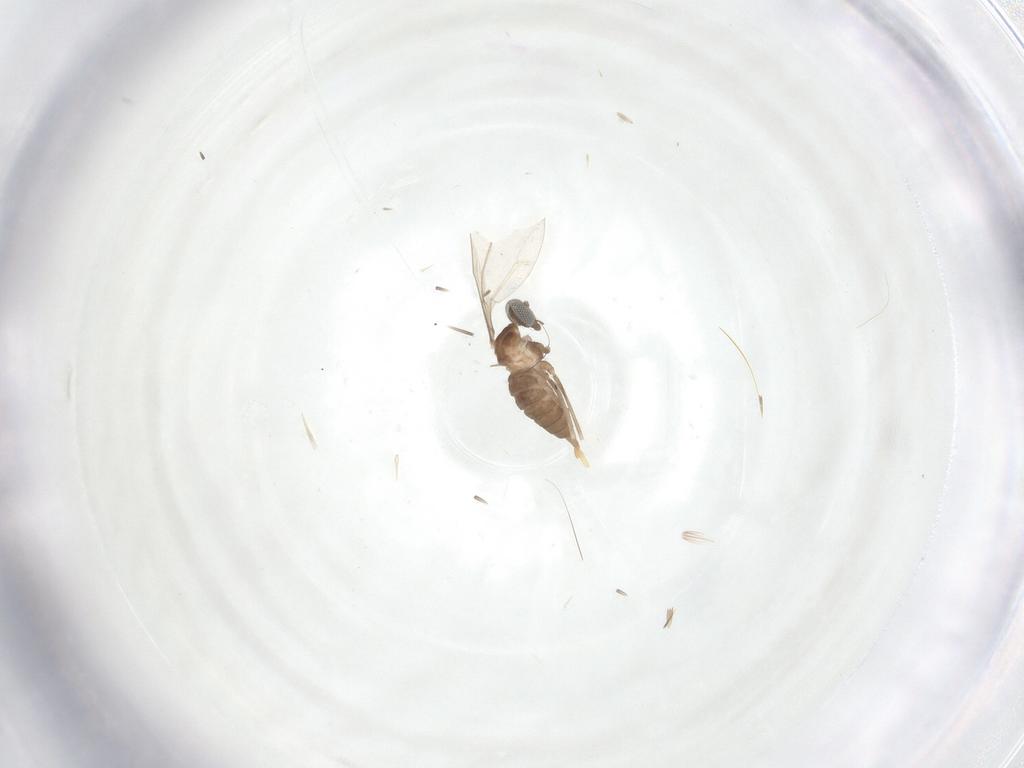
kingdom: Animalia
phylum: Arthropoda
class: Insecta
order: Diptera
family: Cecidomyiidae
